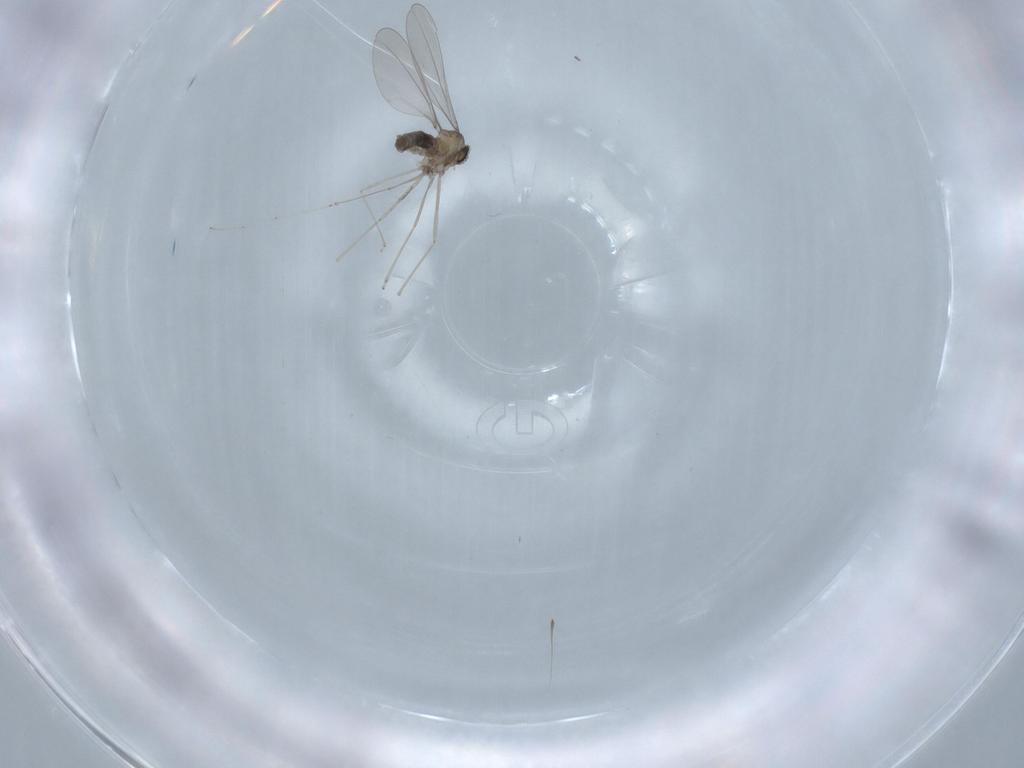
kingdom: Animalia
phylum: Arthropoda
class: Insecta
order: Diptera
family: Cecidomyiidae
